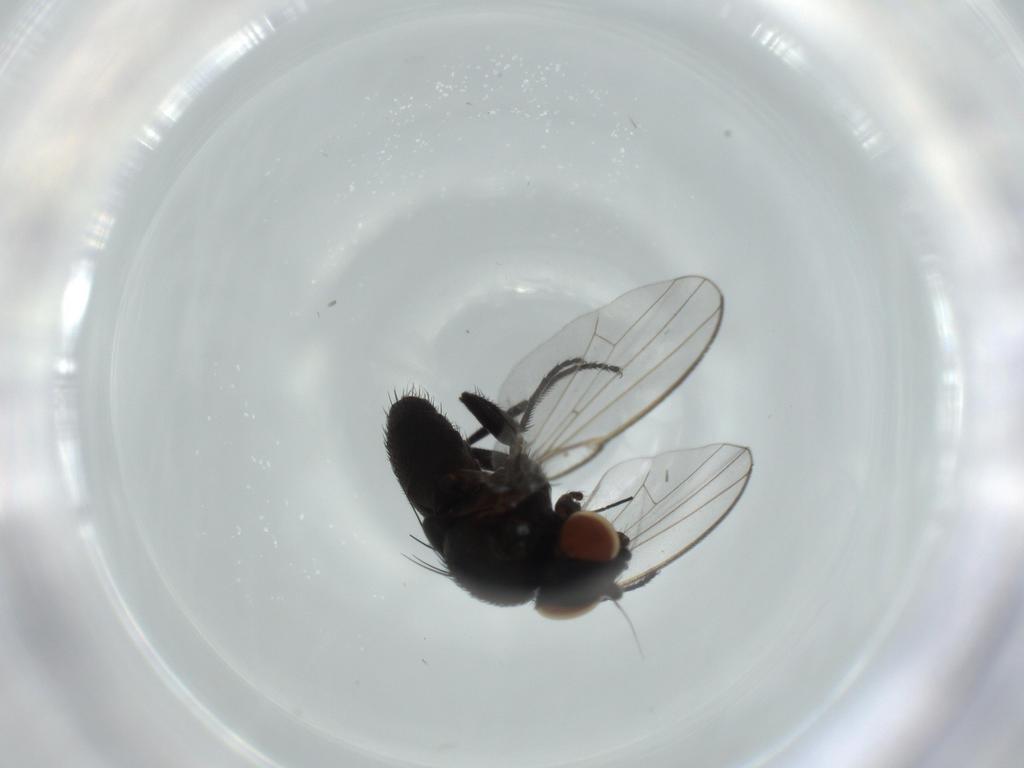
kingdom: Animalia
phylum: Arthropoda
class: Insecta
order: Diptera
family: Milichiidae
